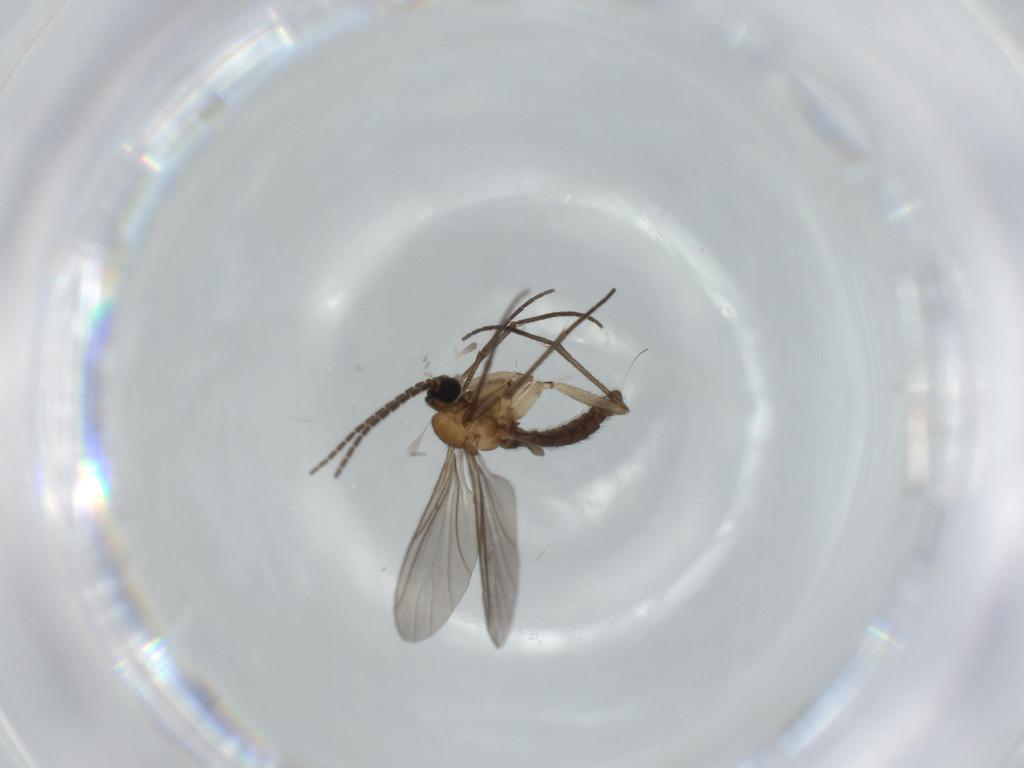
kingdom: Animalia
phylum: Arthropoda
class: Insecta
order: Diptera
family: Sciaridae
